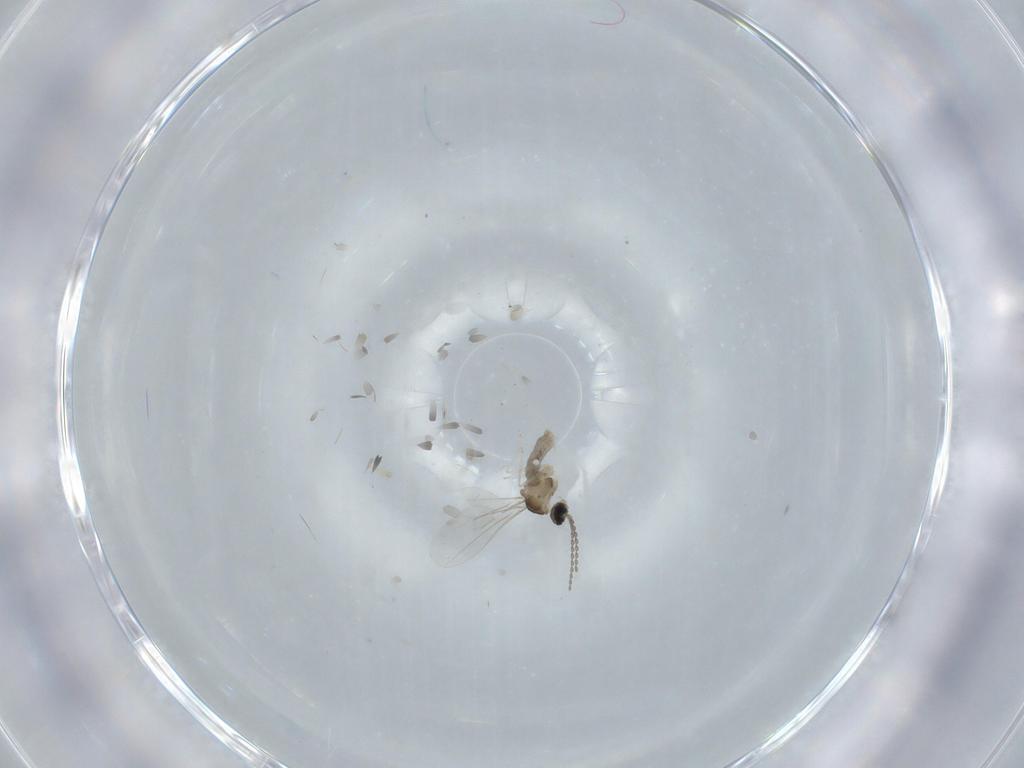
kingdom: Animalia
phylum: Arthropoda
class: Insecta
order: Diptera
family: Cecidomyiidae
